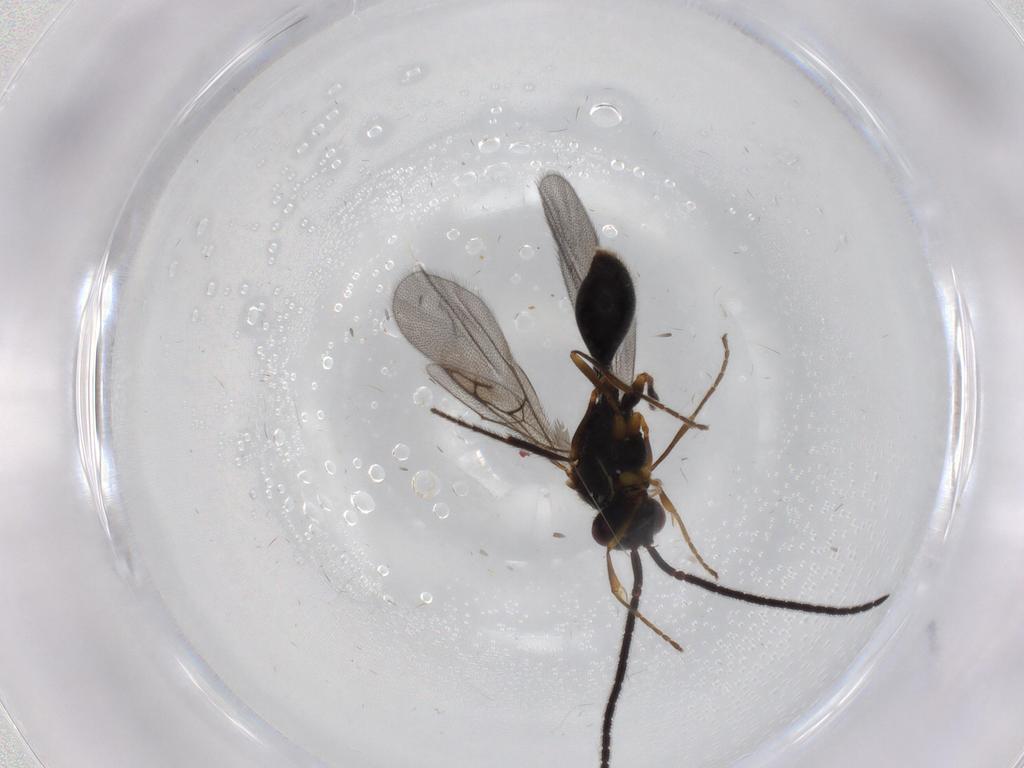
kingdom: Animalia
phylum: Arthropoda
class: Insecta
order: Hymenoptera
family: Diapriidae
